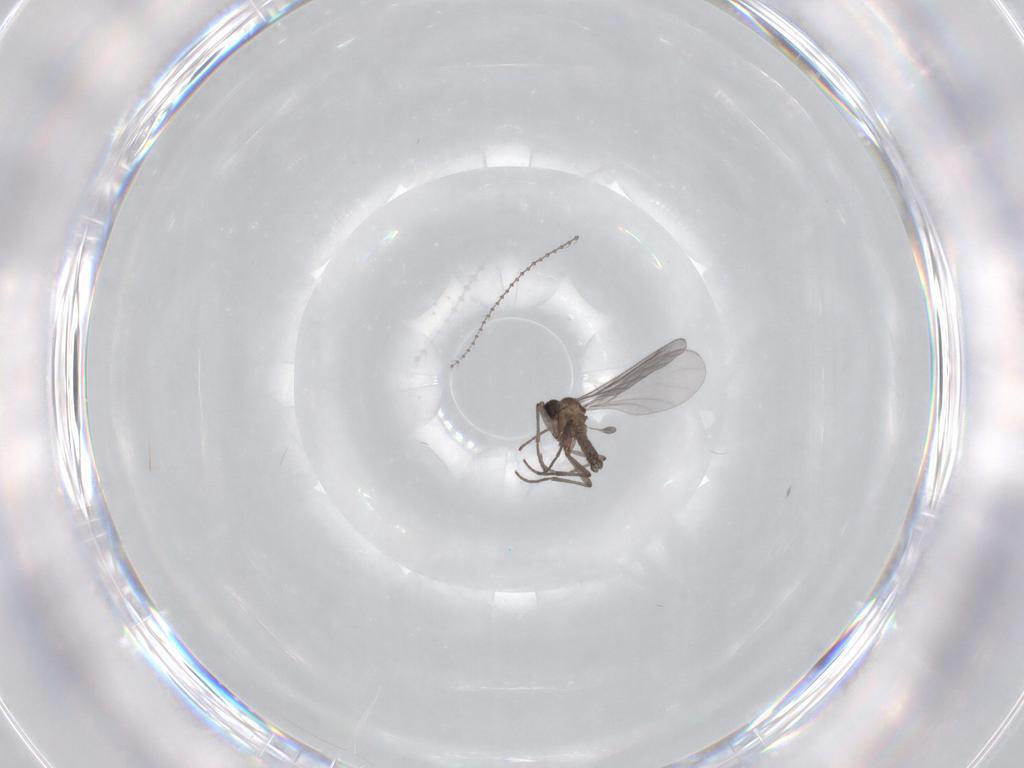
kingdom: Animalia
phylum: Arthropoda
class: Insecta
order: Diptera
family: Sciaridae
